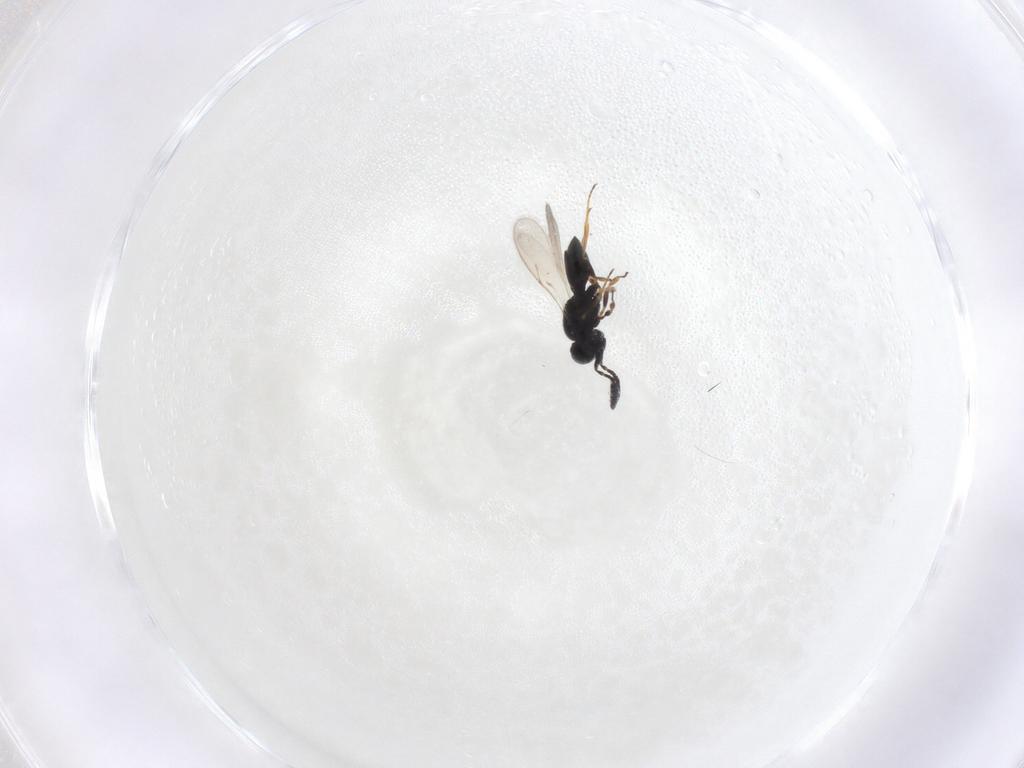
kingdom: Animalia
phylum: Arthropoda
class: Insecta
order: Hymenoptera
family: Scelionidae
